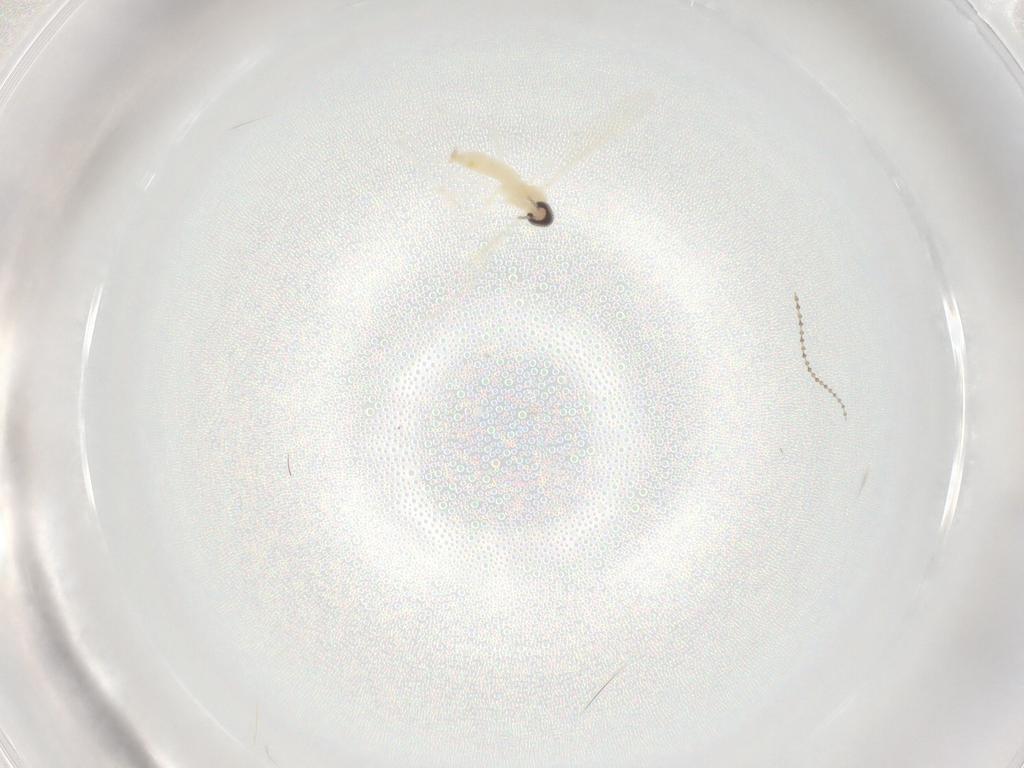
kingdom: Animalia
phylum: Arthropoda
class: Insecta
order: Diptera
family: Cecidomyiidae
